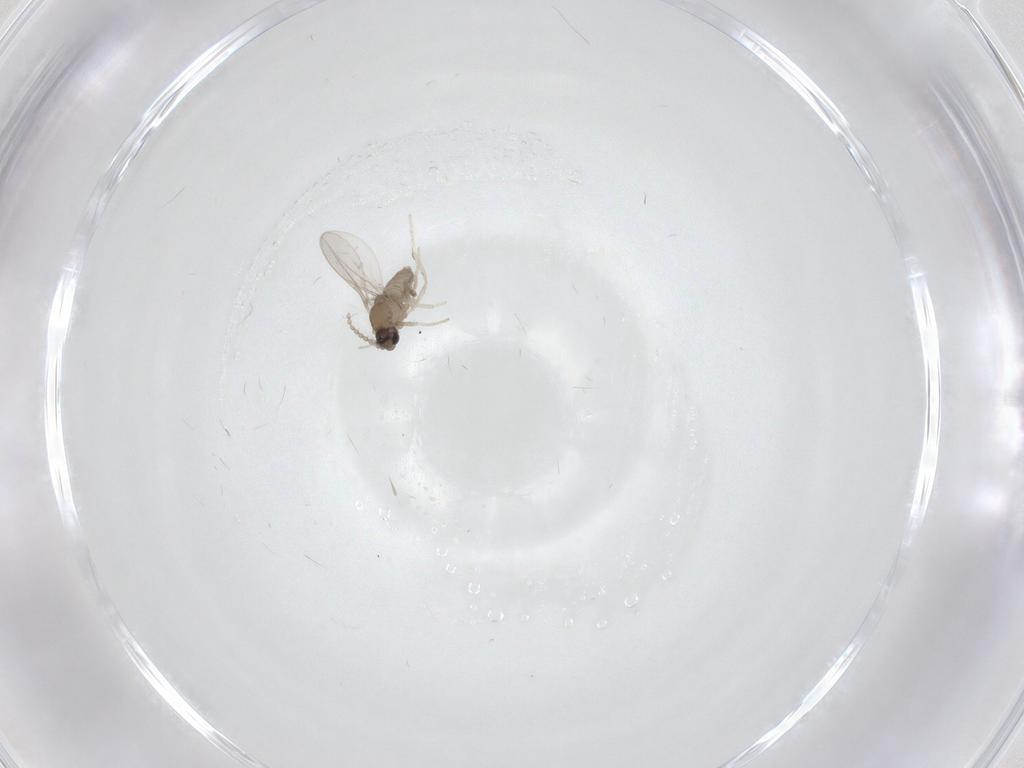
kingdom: Animalia
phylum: Arthropoda
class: Insecta
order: Diptera
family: Cecidomyiidae
